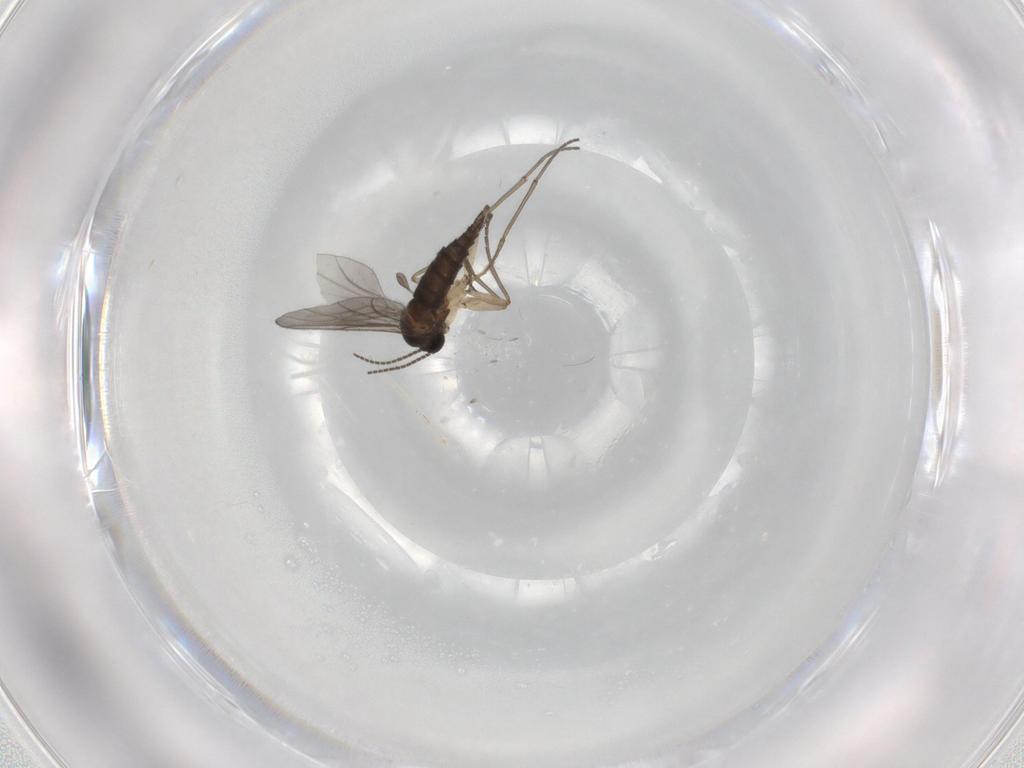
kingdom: Animalia
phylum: Arthropoda
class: Insecta
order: Diptera
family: Sciaridae
